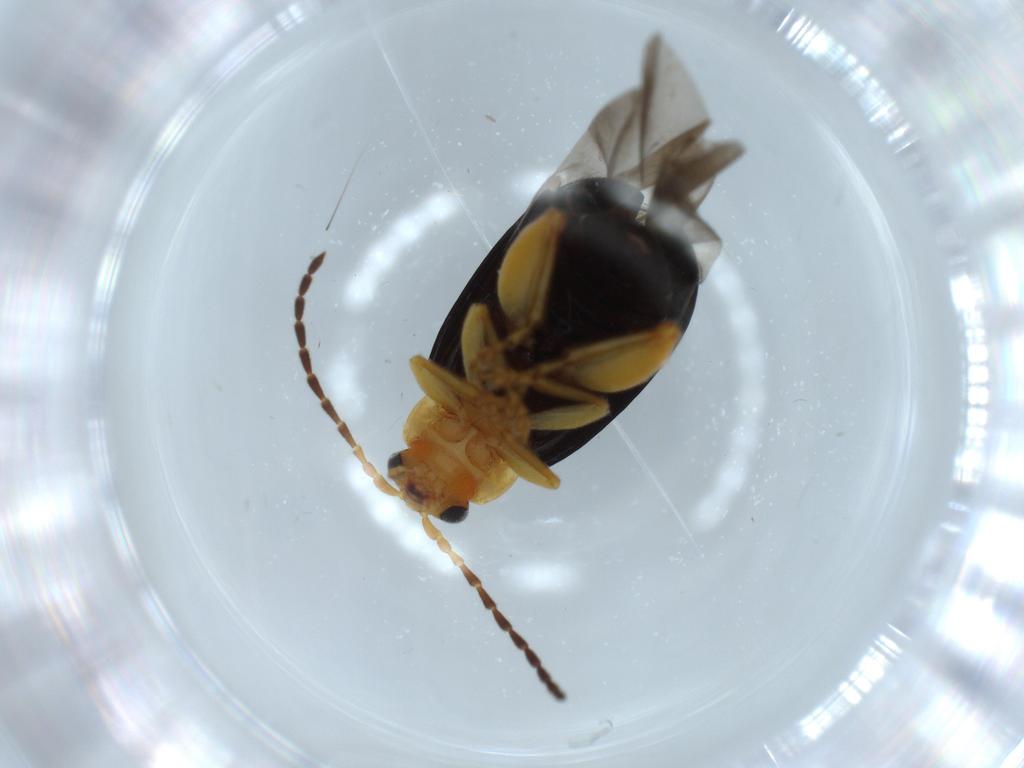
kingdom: Animalia
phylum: Arthropoda
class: Insecta
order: Coleoptera
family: Chrysomelidae
